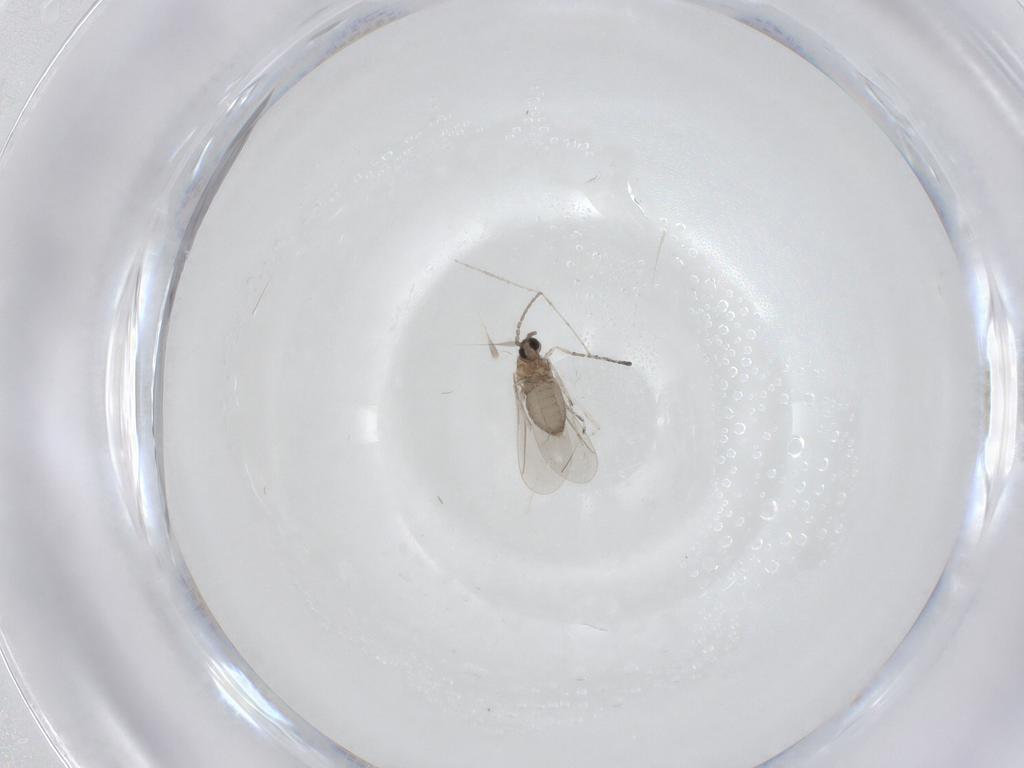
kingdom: Animalia
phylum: Arthropoda
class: Insecta
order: Diptera
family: Cecidomyiidae
